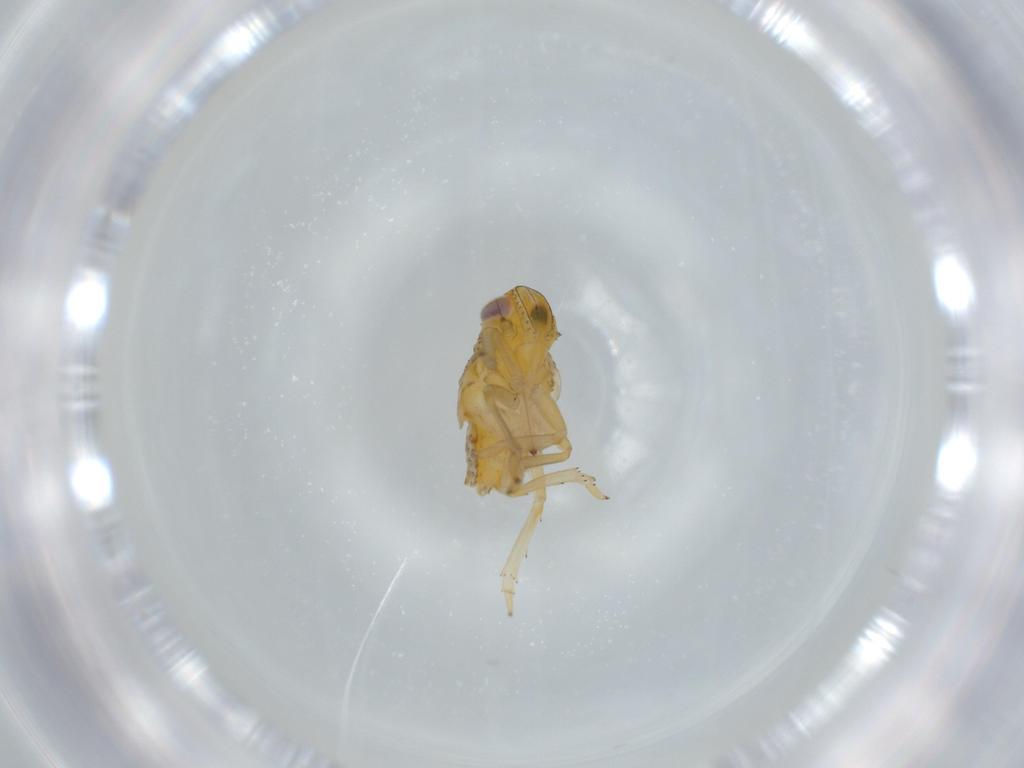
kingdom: Animalia
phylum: Arthropoda
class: Insecta
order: Hemiptera
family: Issidae
